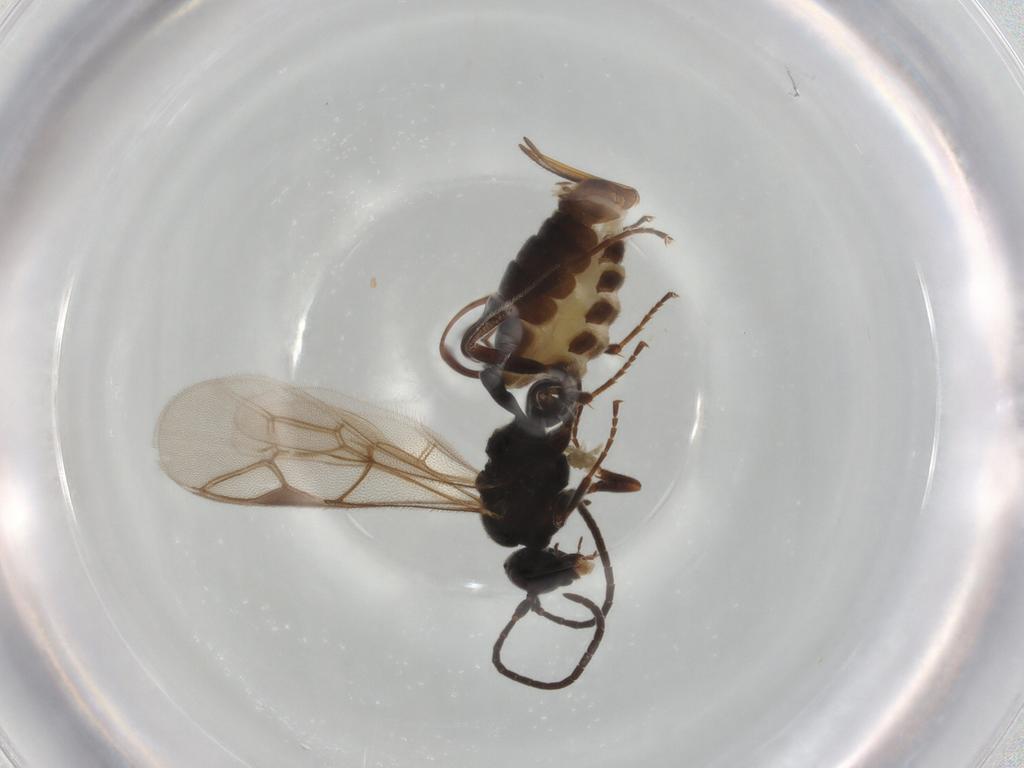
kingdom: Animalia
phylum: Arthropoda
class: Insecta
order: Hymenoptera
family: Ichneumonidae
